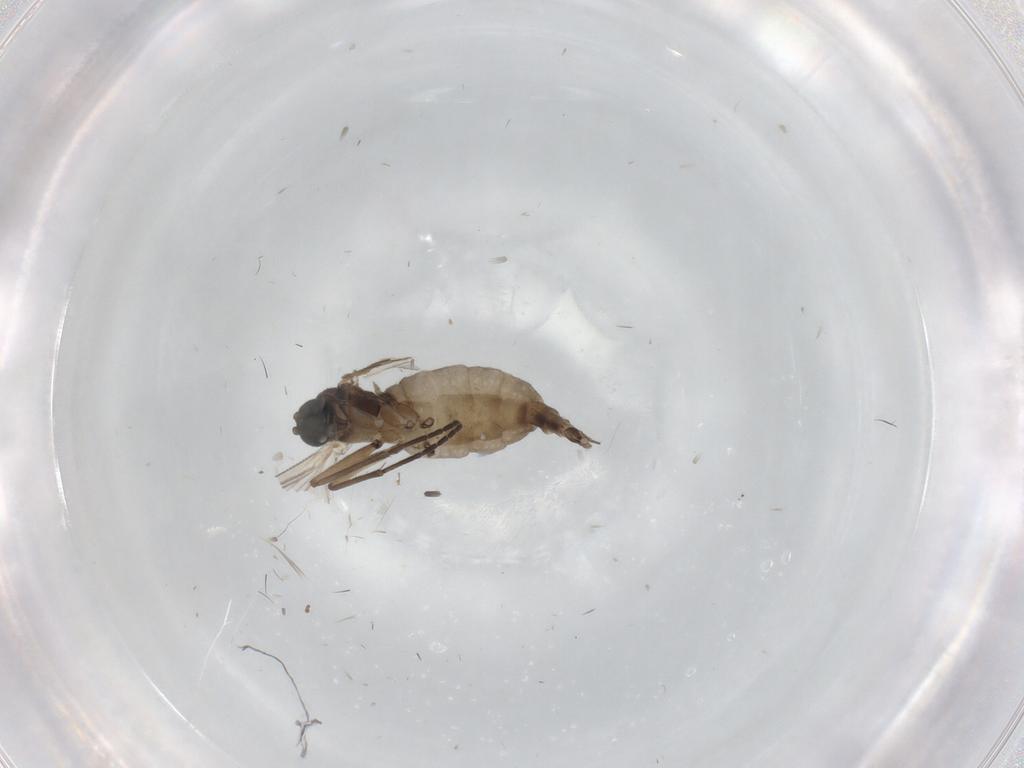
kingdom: Animalia
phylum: Arthropoda
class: Insecta
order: Diptera
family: Sciaridae
